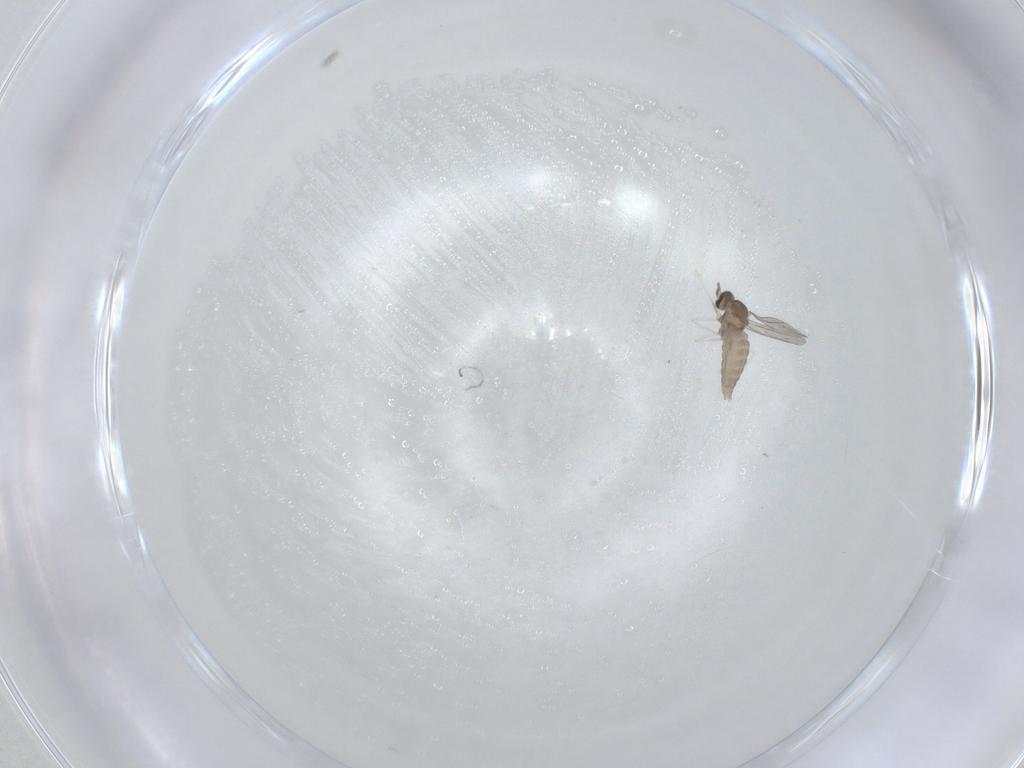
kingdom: Animalia
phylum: Arthropoda
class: Insecta
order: Diptera
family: Cecidomyiidae
